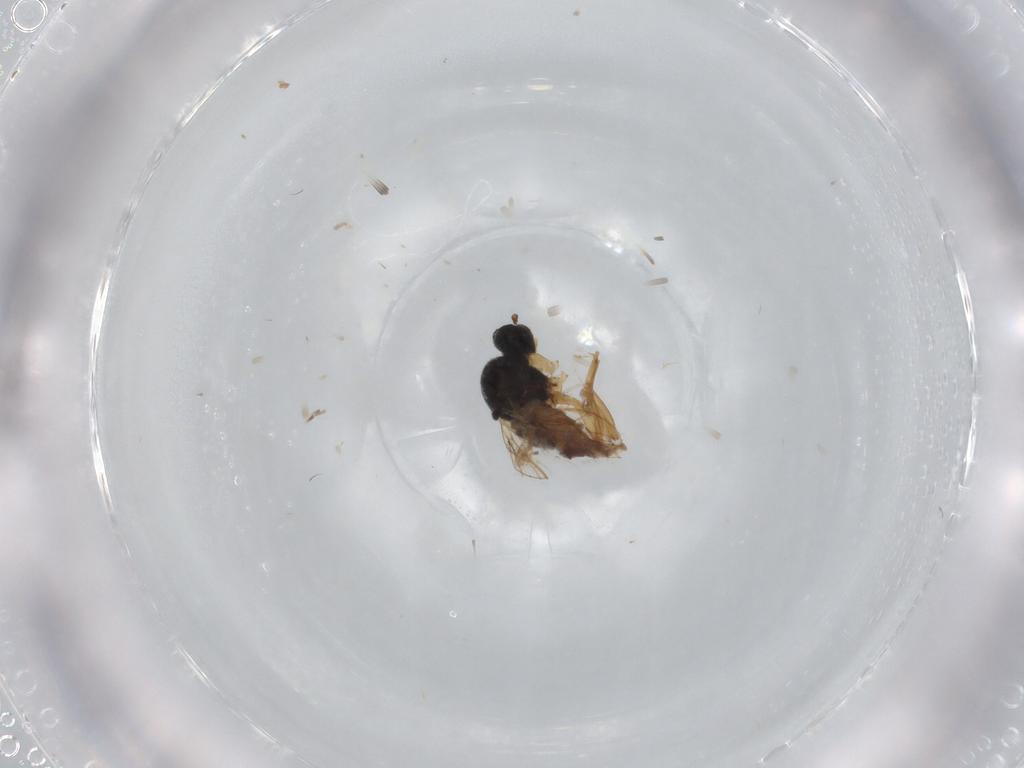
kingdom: Animalia
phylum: Arthropoda
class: Insecta
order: Diptera
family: Hybotidae
